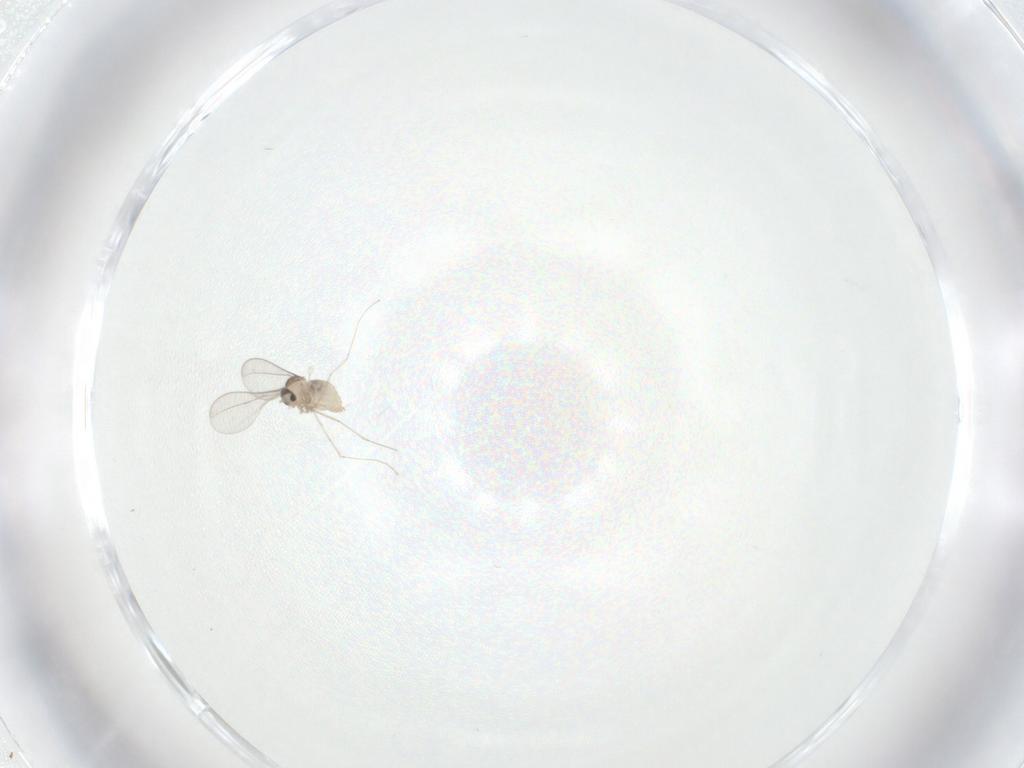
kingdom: Animalia
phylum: Arthropoda
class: Insecta
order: Diptera
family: Cecidomyiidae
